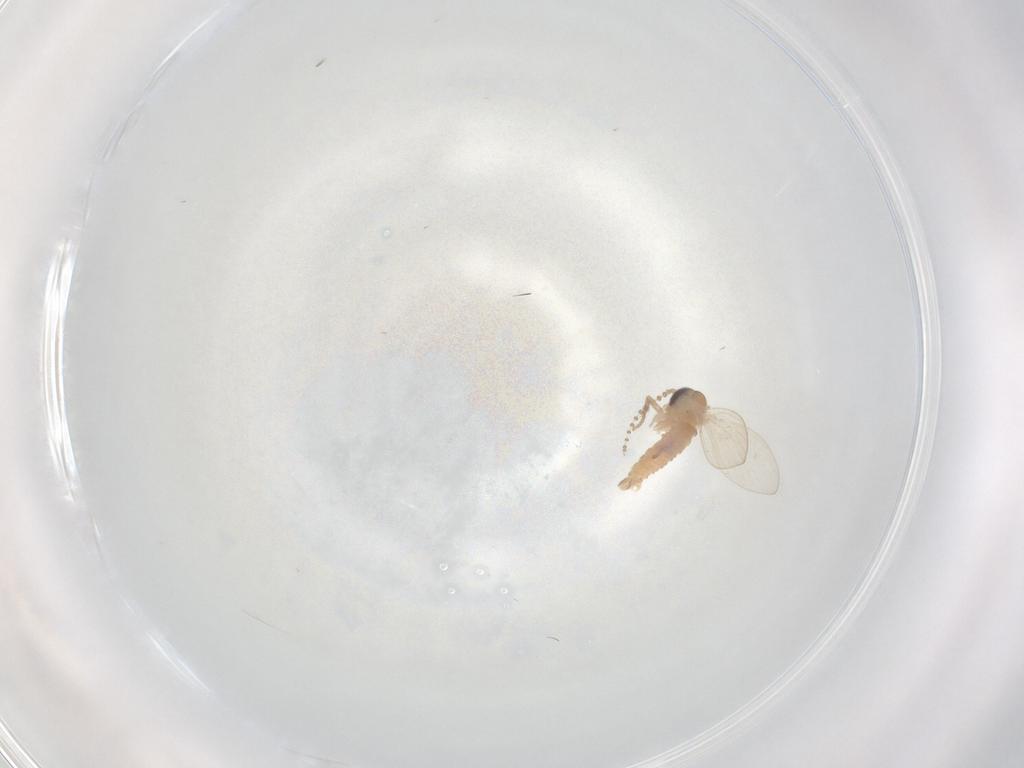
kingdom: Animalia
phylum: Arthropoda
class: Insecta
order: Diptera
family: Psychodidae
